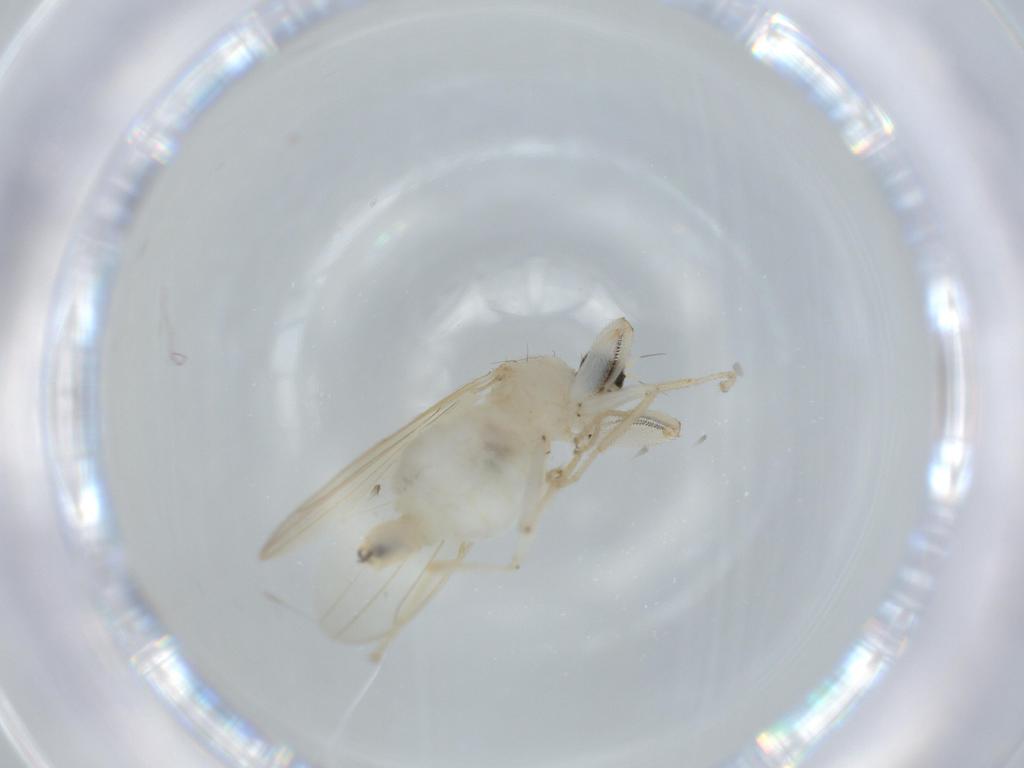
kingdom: Animalia
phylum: Arthropoda
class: Insecta
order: Diptera
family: Hybotidae
